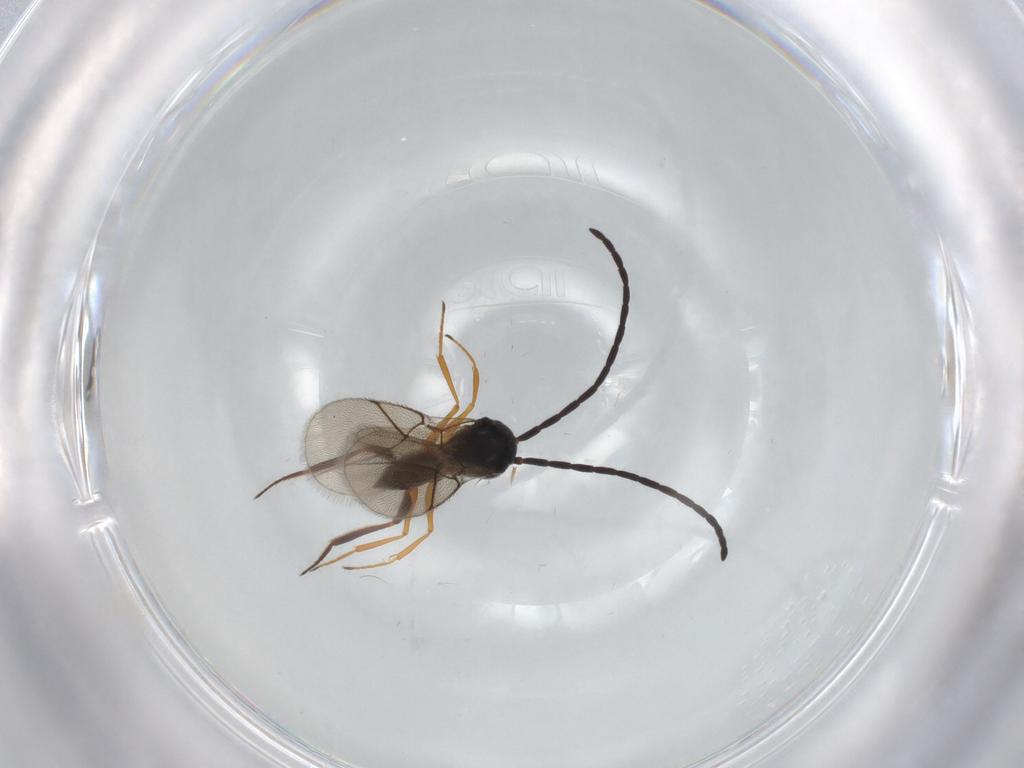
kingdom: Animalia
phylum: Arthropoda
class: Insecta
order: Hymenoptera
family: Figitidae
